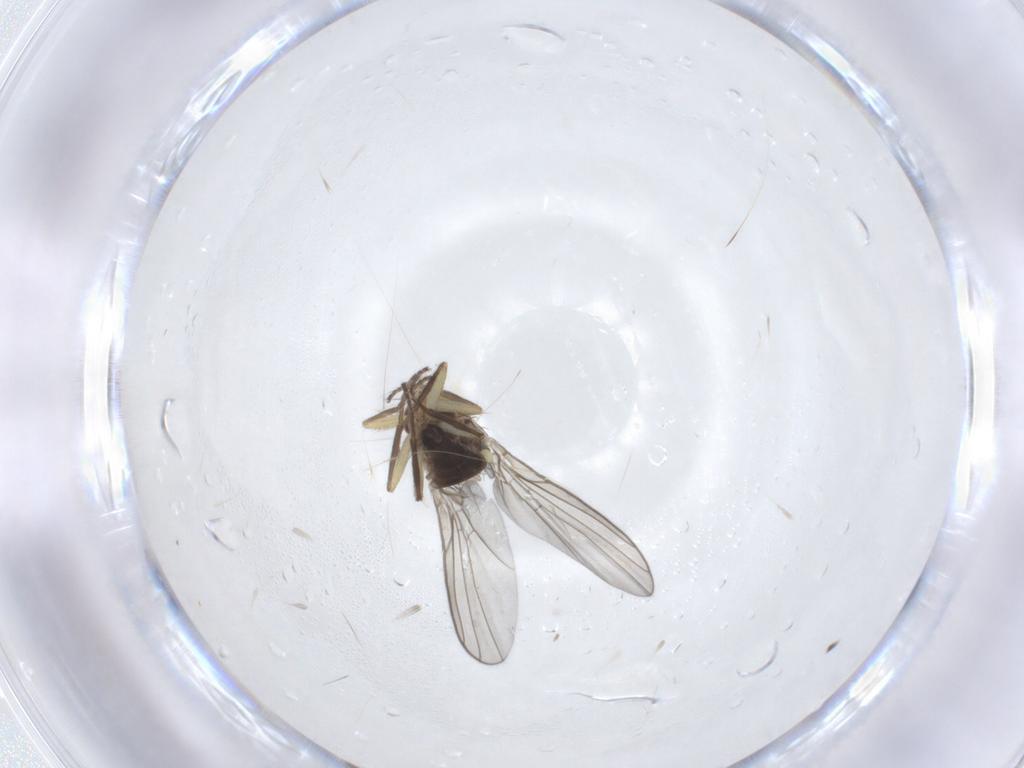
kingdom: Animalia
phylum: Arthropoda
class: Insecta
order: Diptera
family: Agromyzidae
